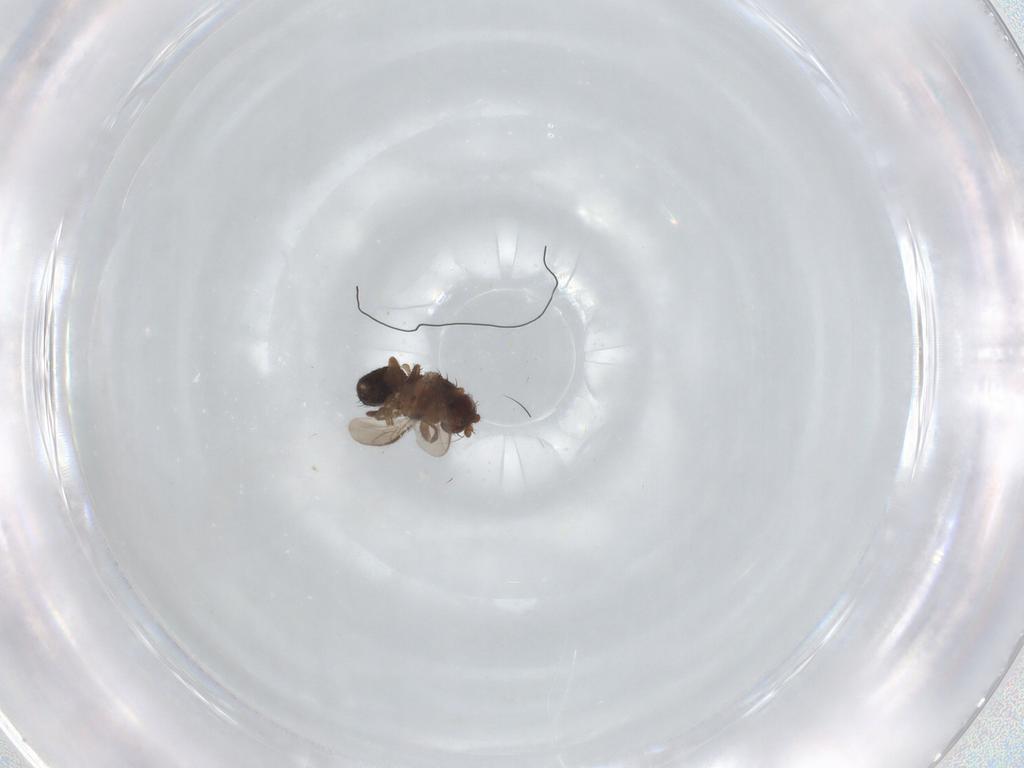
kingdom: Animalia
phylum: Arthropoda
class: Insecta
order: Diptera
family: Sphaeroceridae
